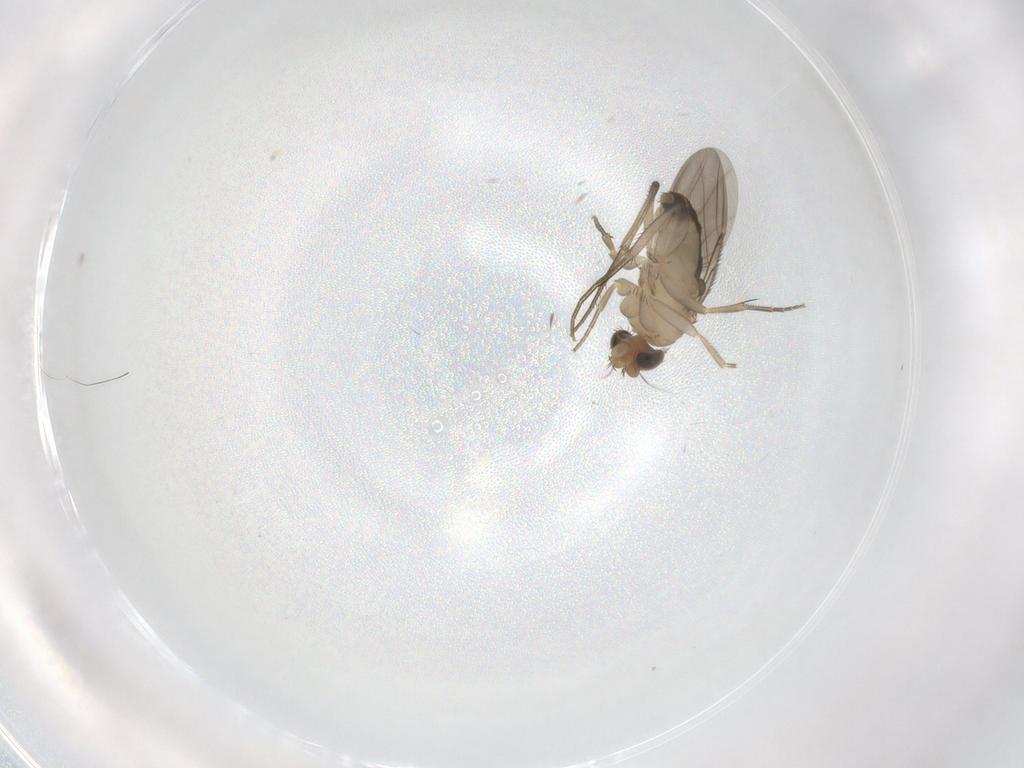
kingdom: Animalia
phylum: Arthropoda
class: Insecta
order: Diptera
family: Phoridae
